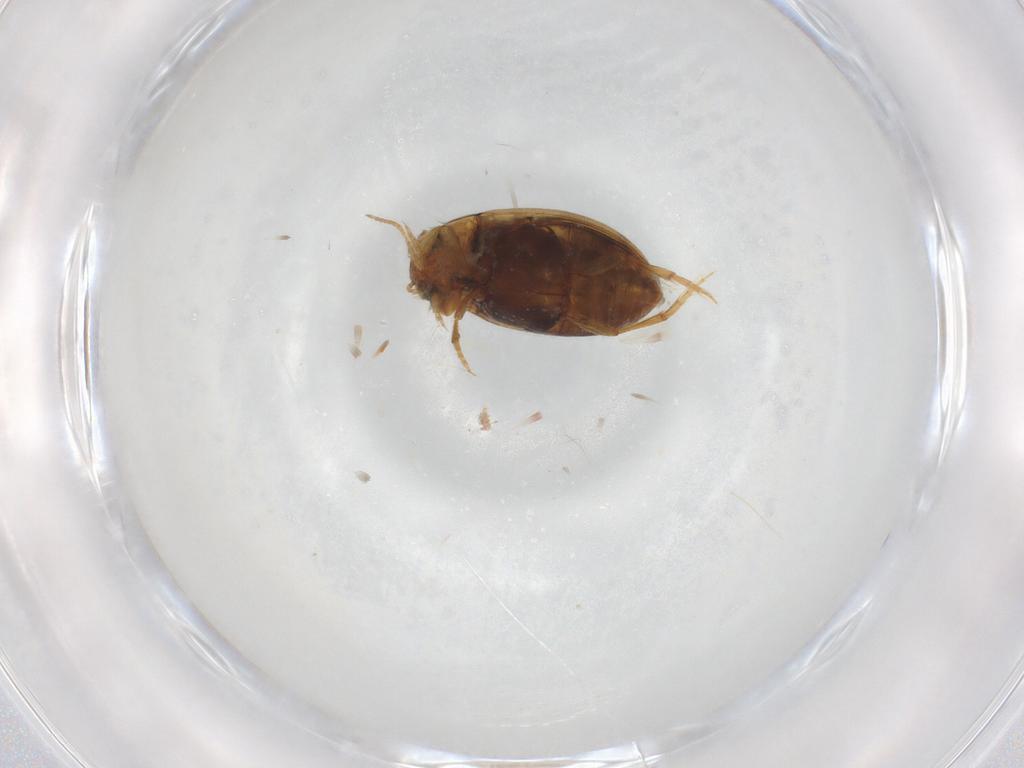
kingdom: Animalia
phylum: Arthropoda
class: Insecta
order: Coleoptera
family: Dytiscidae
